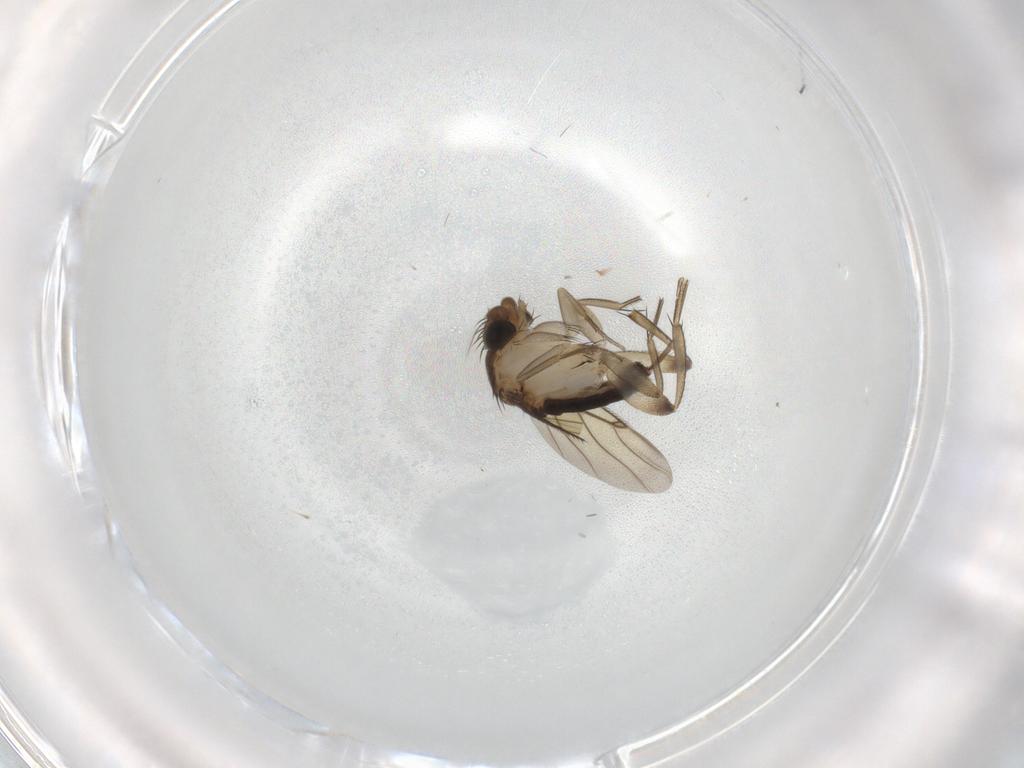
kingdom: Animalia
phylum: Arthropoda
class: Insecta
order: Diptera
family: Phoridae
